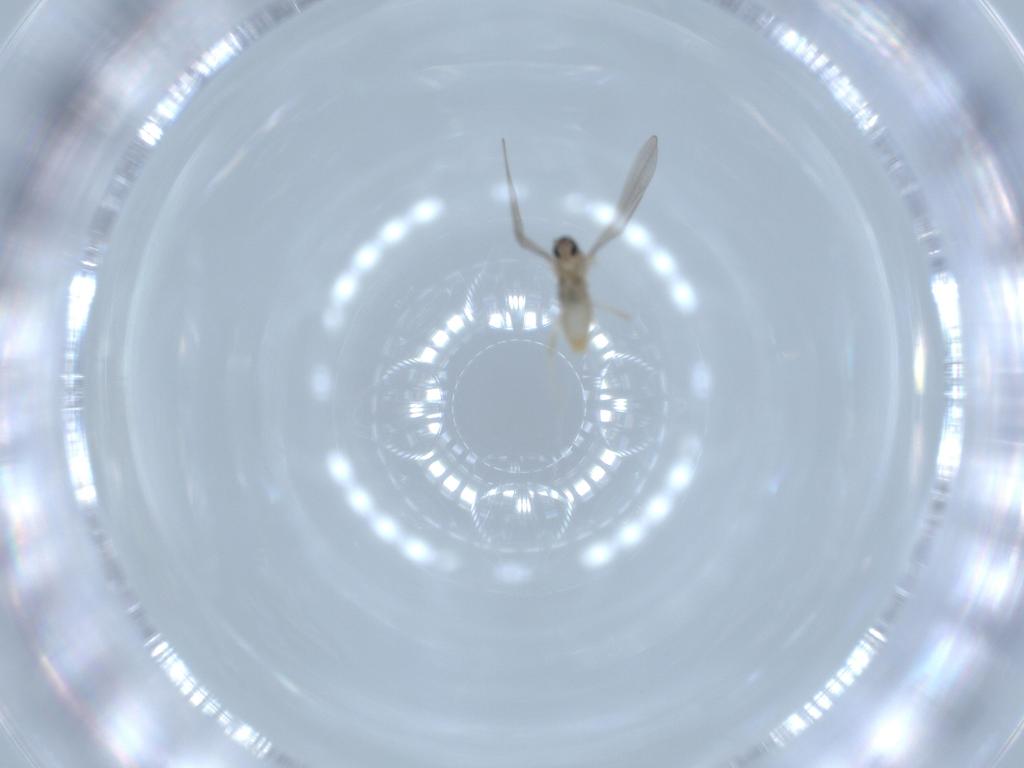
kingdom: Animalia
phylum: Arthropoda
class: Insecta
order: Diptera
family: Cecidomyiidae
